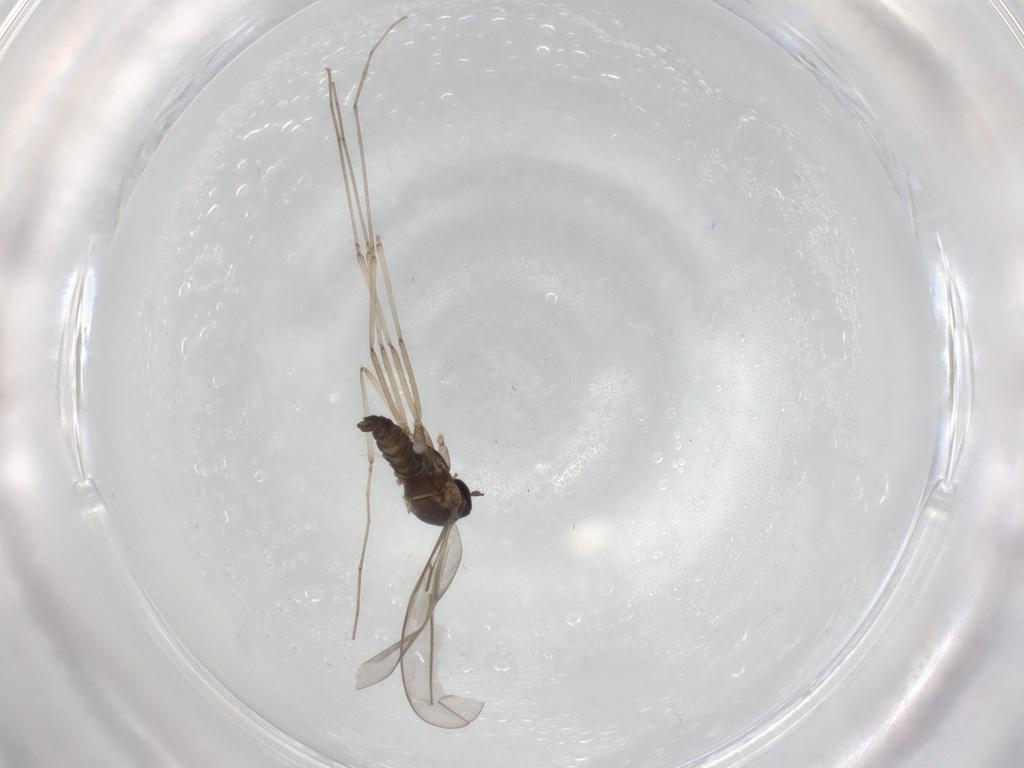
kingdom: Animalia
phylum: Arthropoda
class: Insecta
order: Diptera
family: Cecidomyiidae
